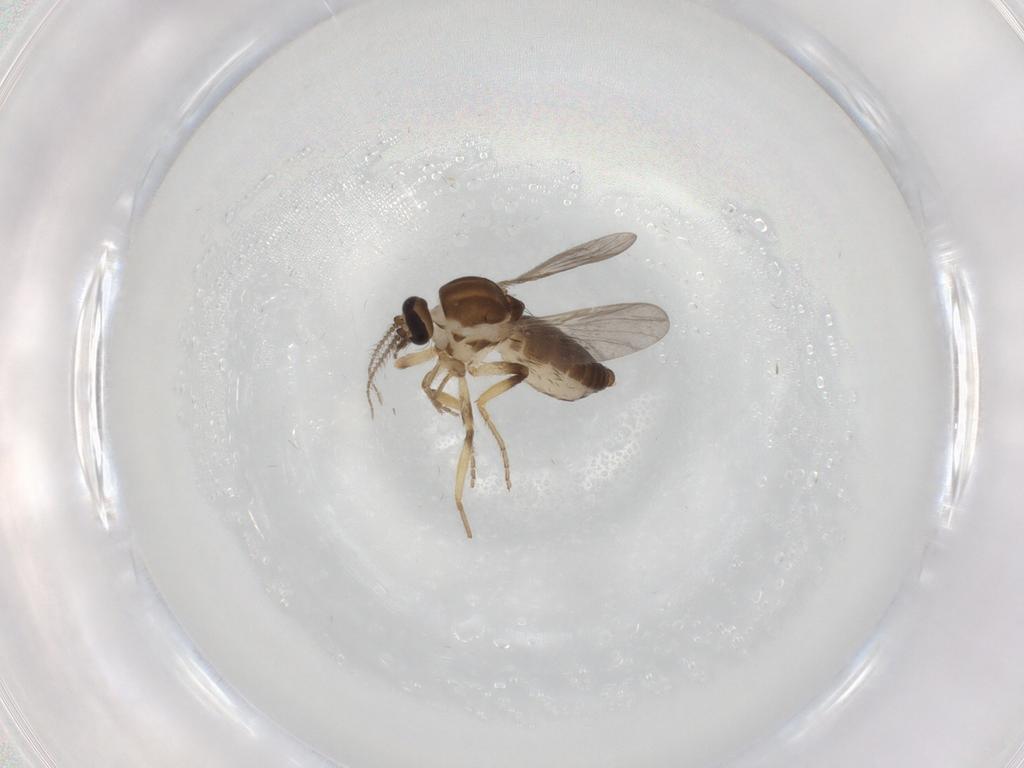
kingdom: Animalia
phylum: Arthropoda
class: Insecta
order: Diptera
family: Ceratopogonidae
